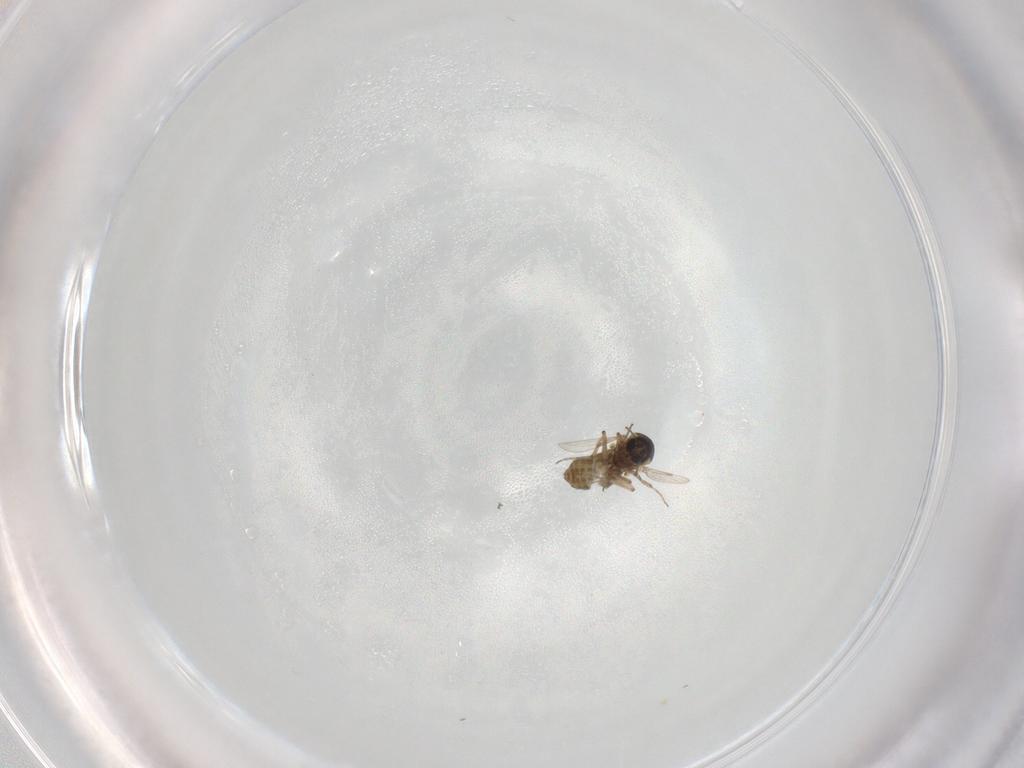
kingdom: Animalia
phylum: Arthropoda
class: Insecta
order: Diptera
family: Ceratopogonidae
